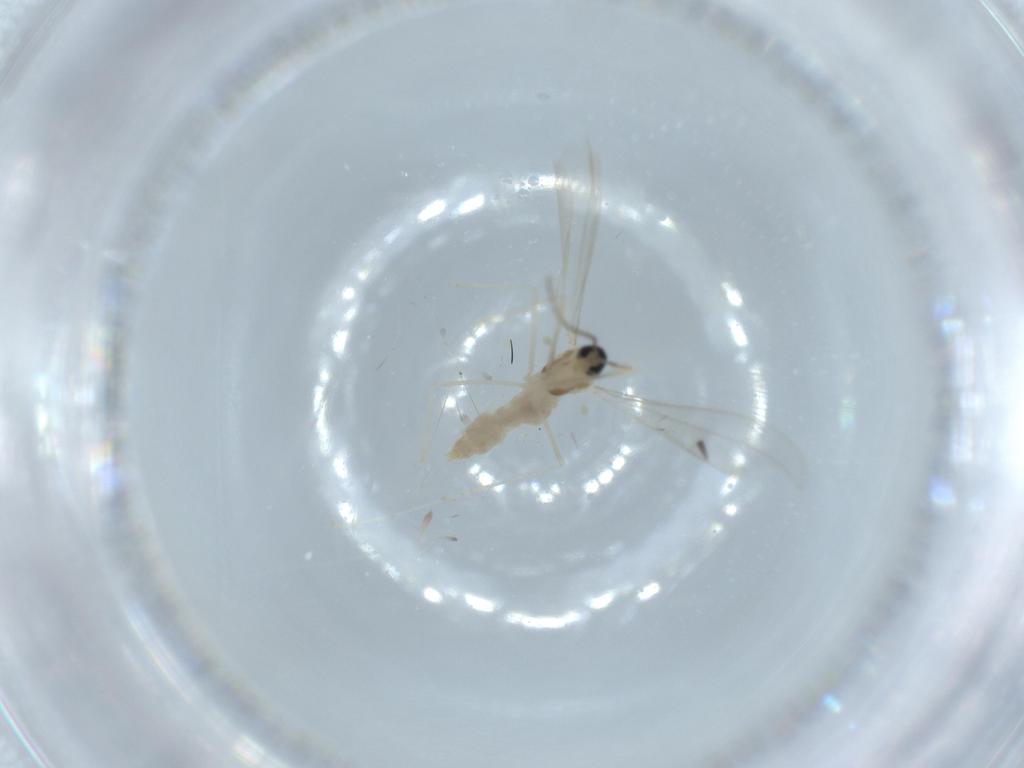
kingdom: Animalia
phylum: Arthropoda
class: Insecta
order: Diptera
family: Cecidomyiidae
